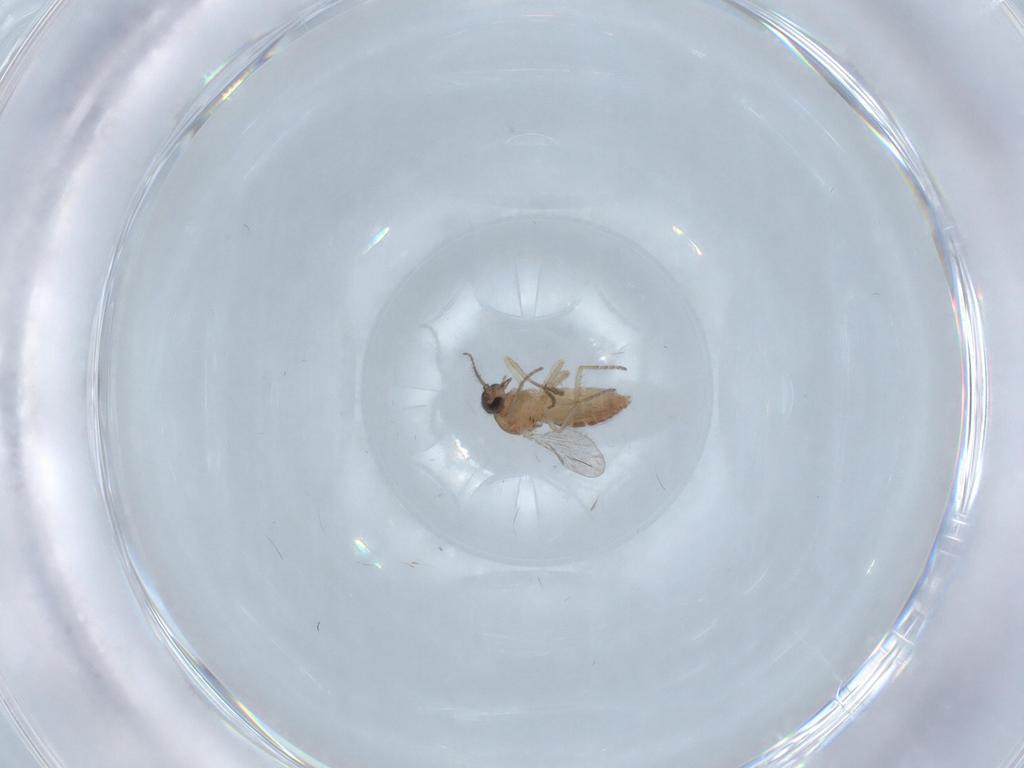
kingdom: Animalia
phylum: Arthropoda
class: Insecta
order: Diptera
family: Ceratopogonidae
